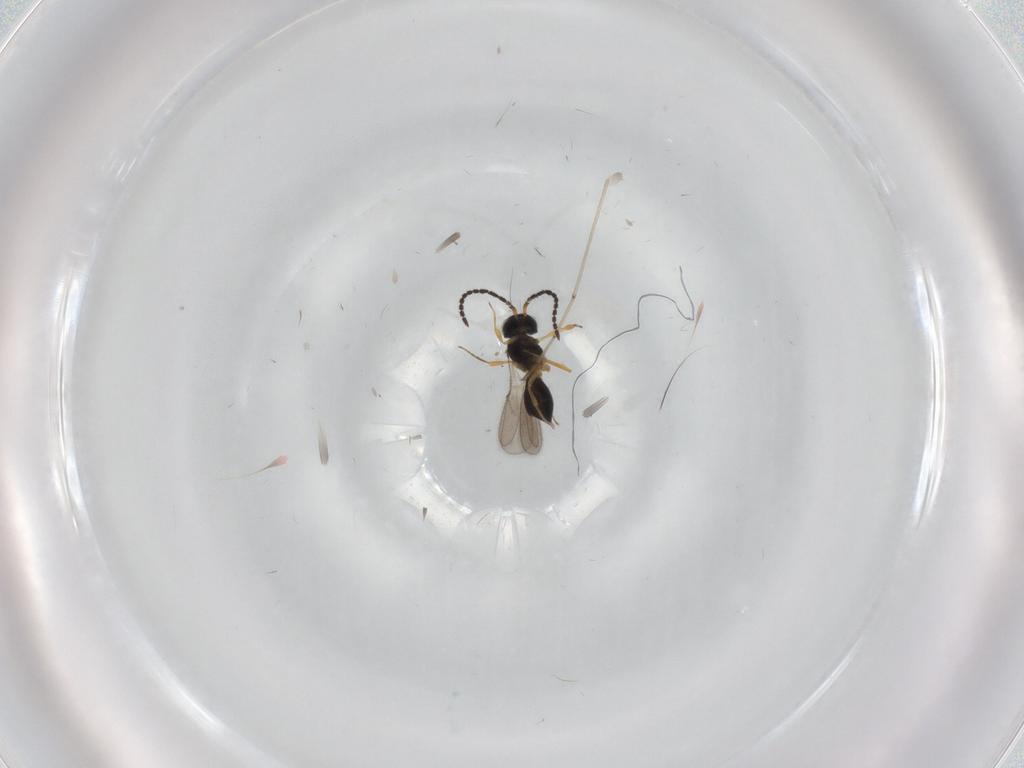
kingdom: Animalia
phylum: Arthropoda
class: Insecta
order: Hymenoptera
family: Scelionidae
